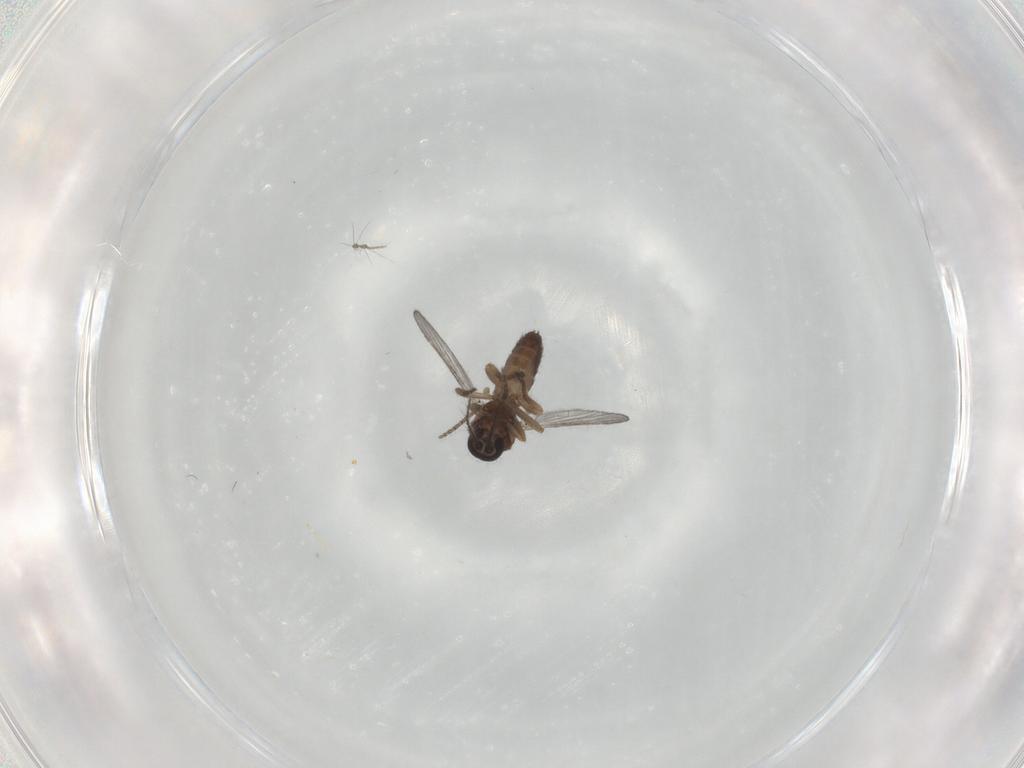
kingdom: Animalia
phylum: Arthropoda
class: Insecta
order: Diptera
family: Ceratopogonidae
